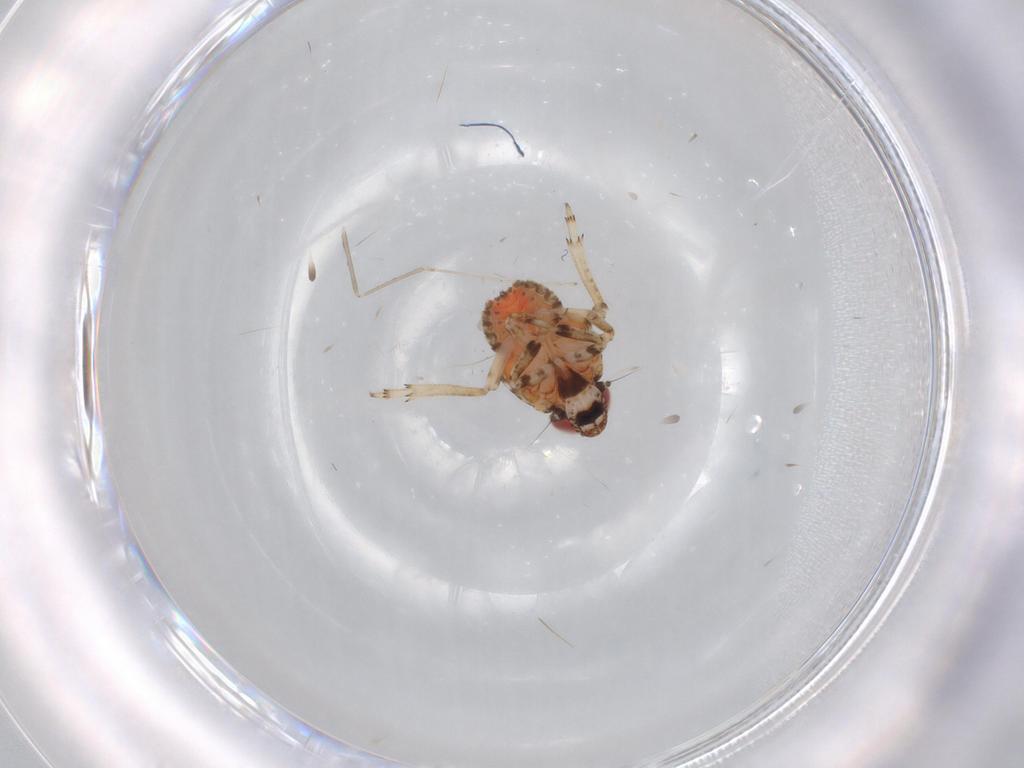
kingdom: Animalia
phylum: Arthropoda
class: Insecta
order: Hemiptera
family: Issidae
